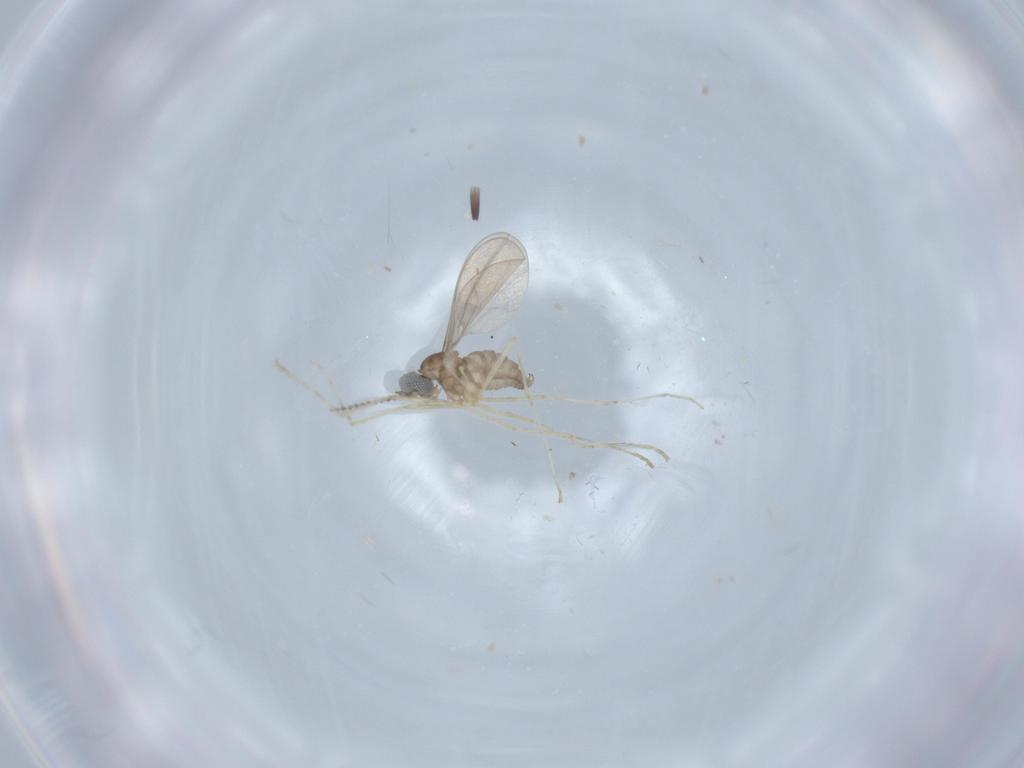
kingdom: Animalia
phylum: Arthropoda
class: Insecta
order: Diptera
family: Cecidomyiidae
